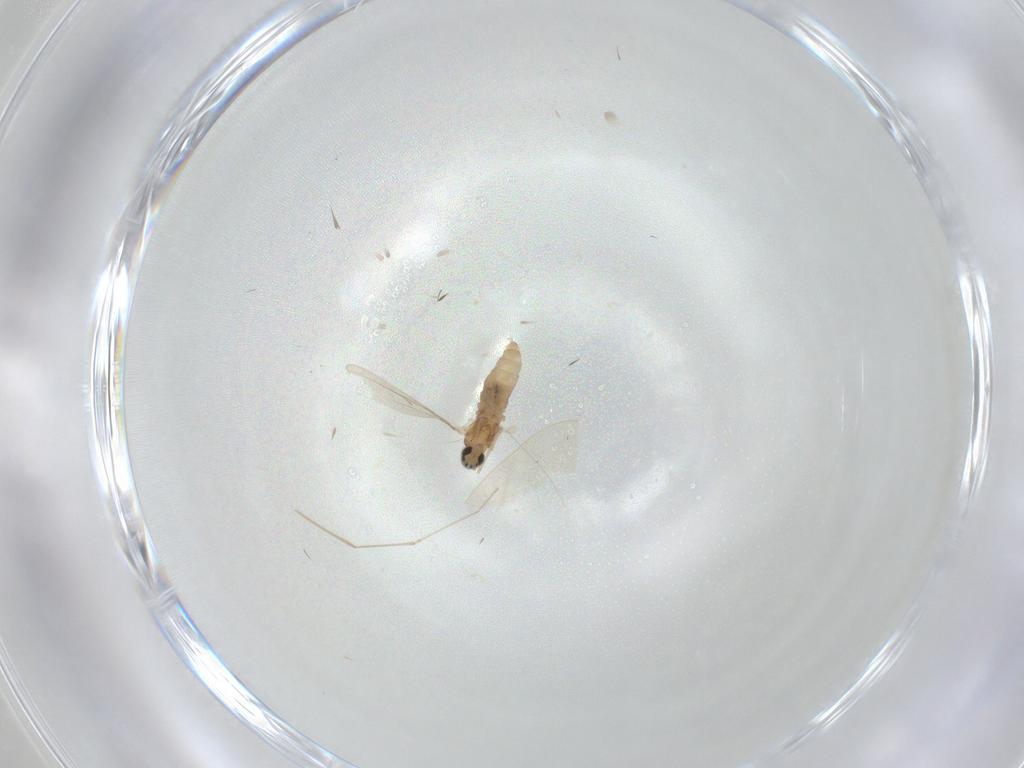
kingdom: Animalia
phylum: Arthropoda
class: Insecta
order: Diptera
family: Cecidomyiidae
